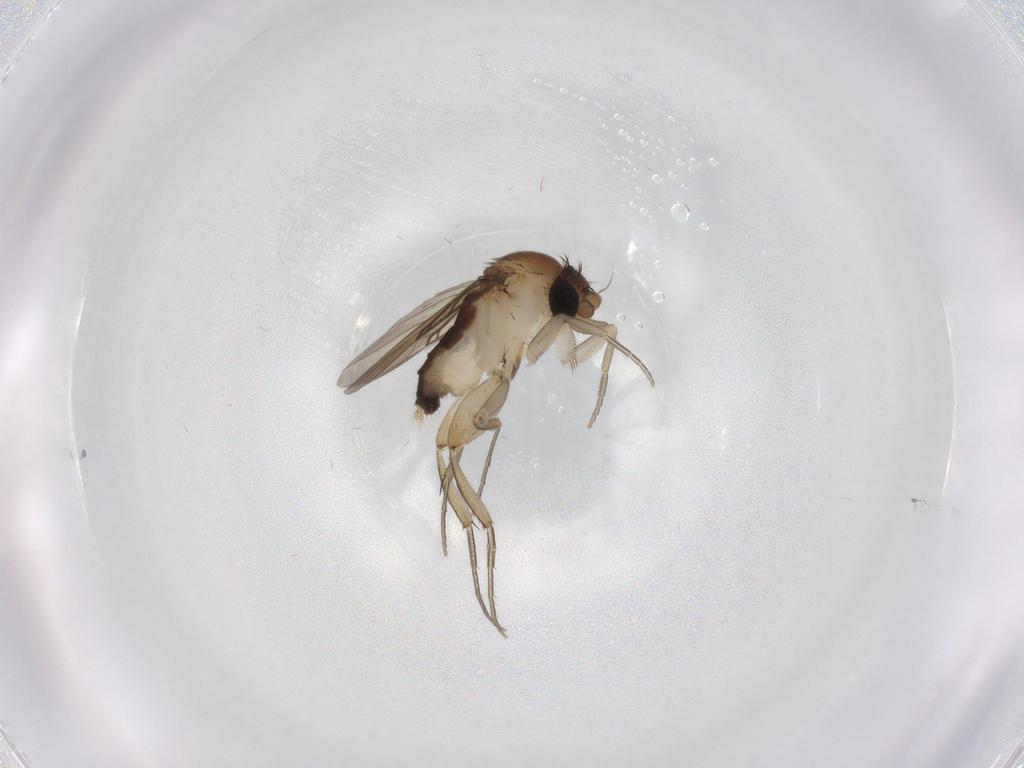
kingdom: Animalia
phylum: Arthropoda
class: Insecta
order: Diptera
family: Phoridae
